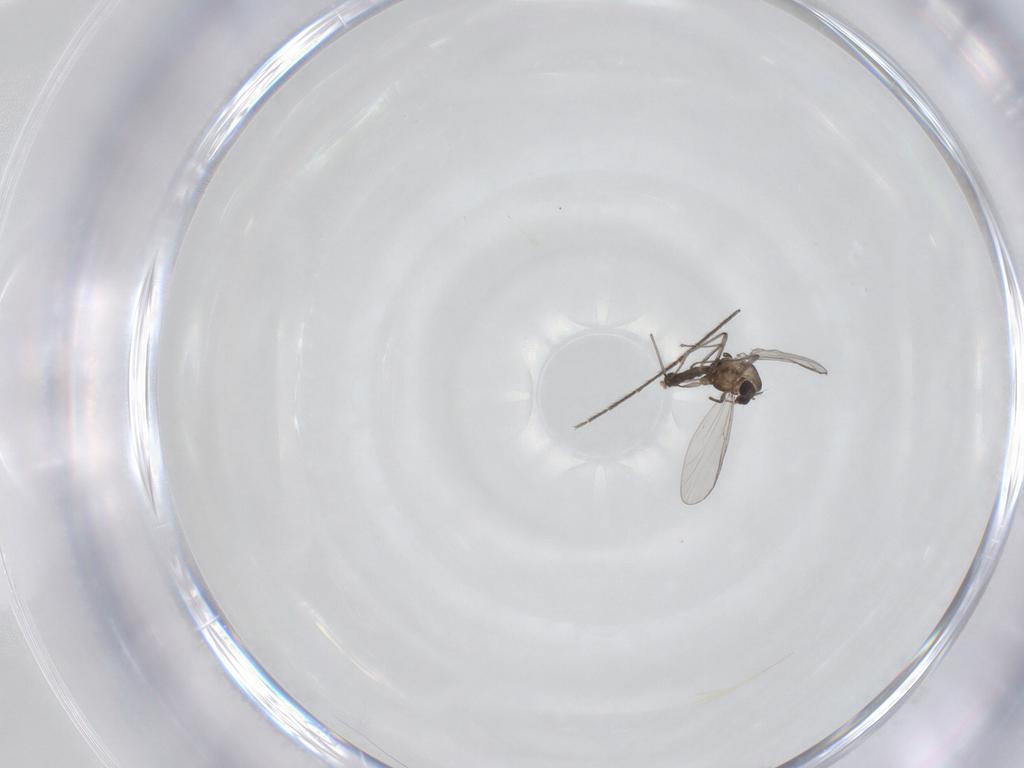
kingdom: Animalia
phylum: Arthropoda
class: Insecta
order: Diptera
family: Chironomidae
